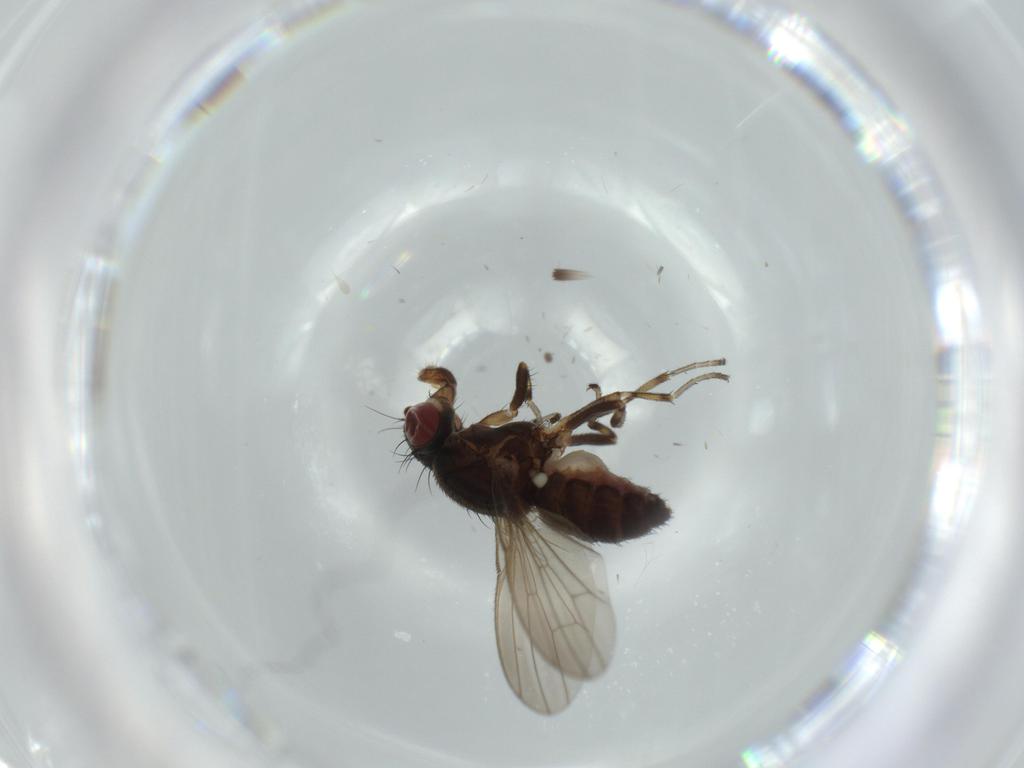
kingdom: Animalia
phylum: Arthropoda
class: Insecta
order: Diptera
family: Heleomyzidae
